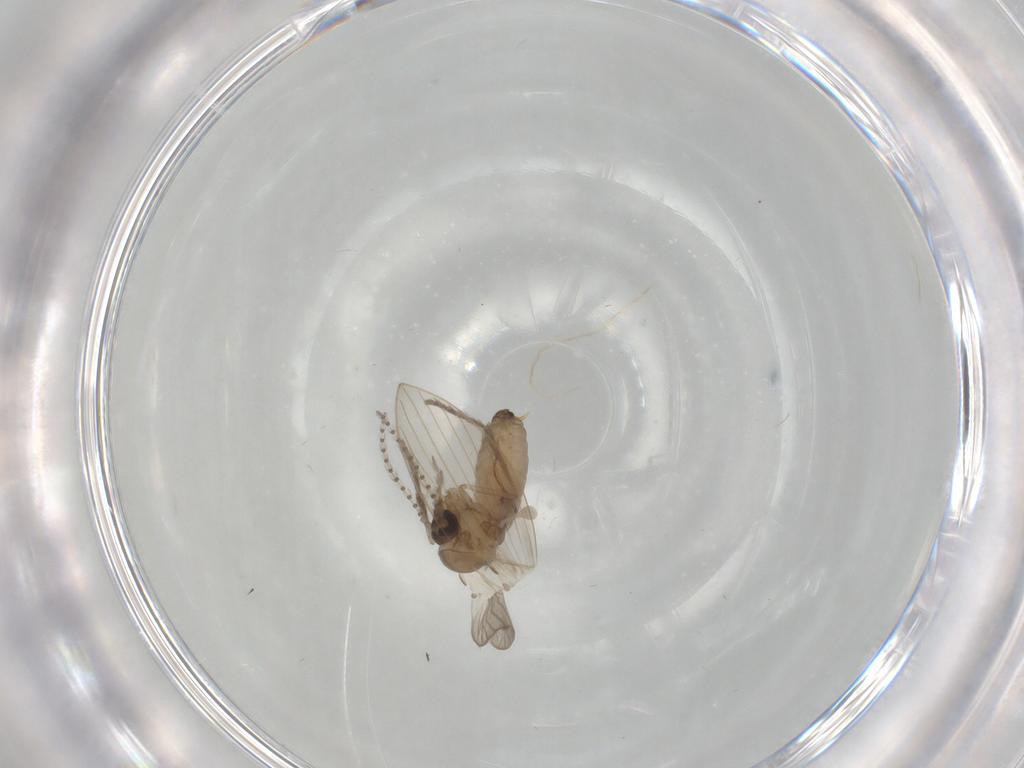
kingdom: Animalia
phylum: Arthropoda
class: Insecta
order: Diptera
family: Psychodidae
